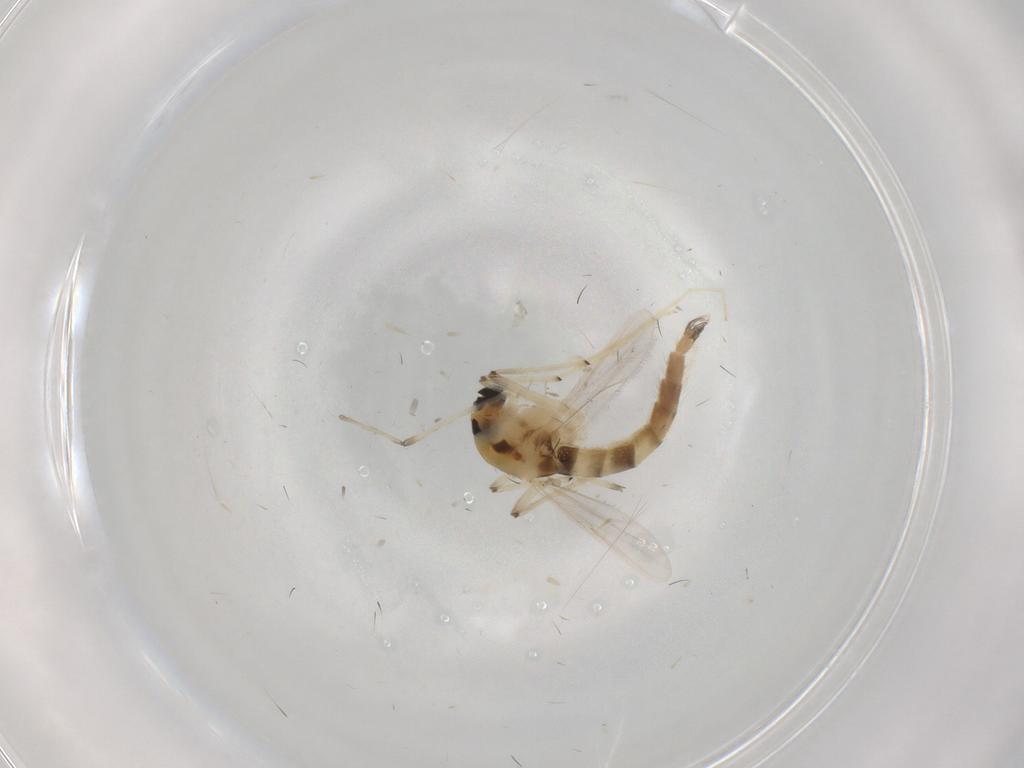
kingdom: Animalia
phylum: Arthropoda
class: Insecta
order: Diptera
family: Chironomidae
